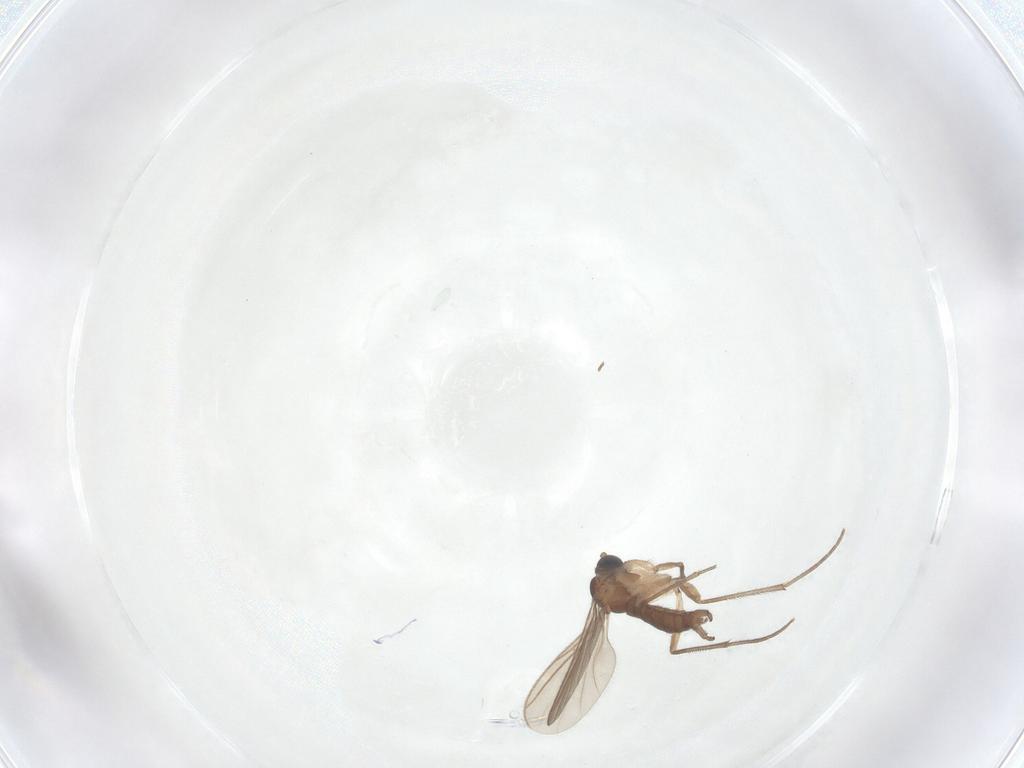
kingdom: Animalia
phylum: Arthropoda
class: Insecta
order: Diptera
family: Sciaridae
